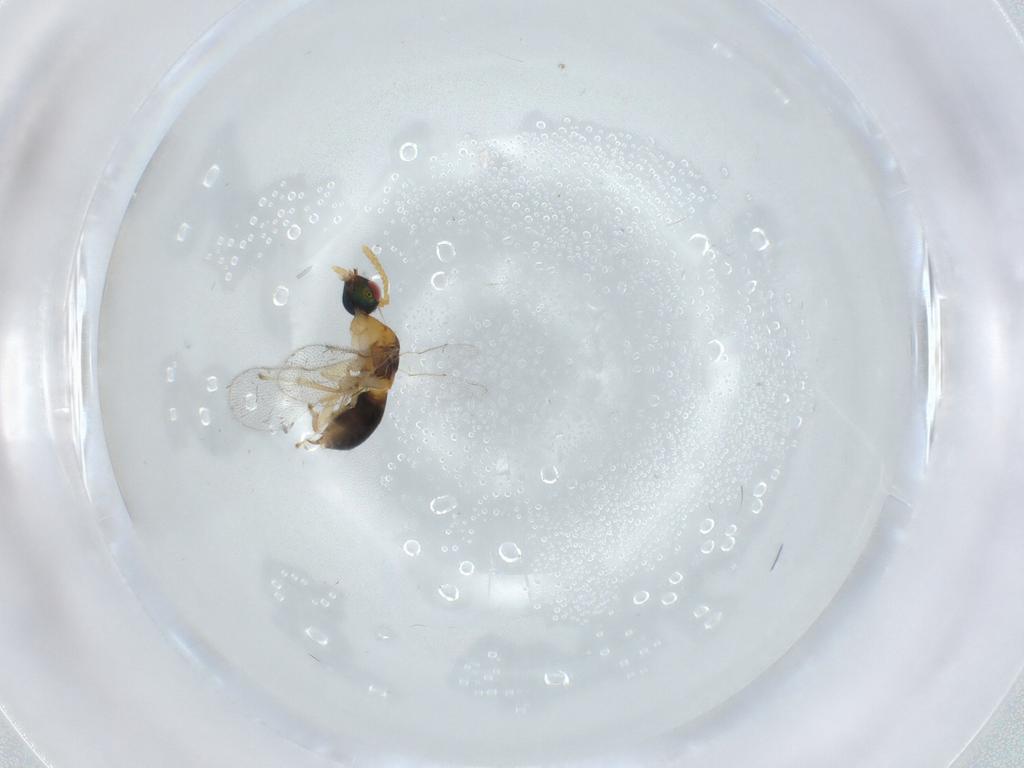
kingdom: Animalia
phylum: Arthropoda
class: Insecta
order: Hymenoptera
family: Torymidae
